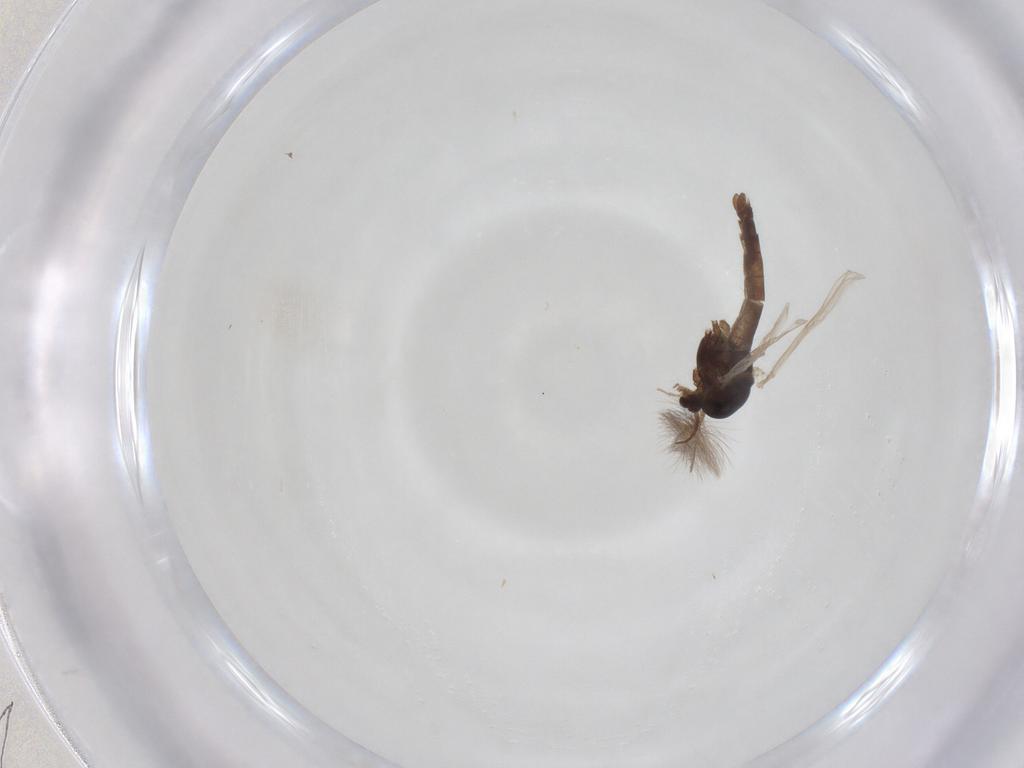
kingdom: Animalia
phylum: Arthropoda
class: Insecta
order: Diptera
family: Chironomidae
